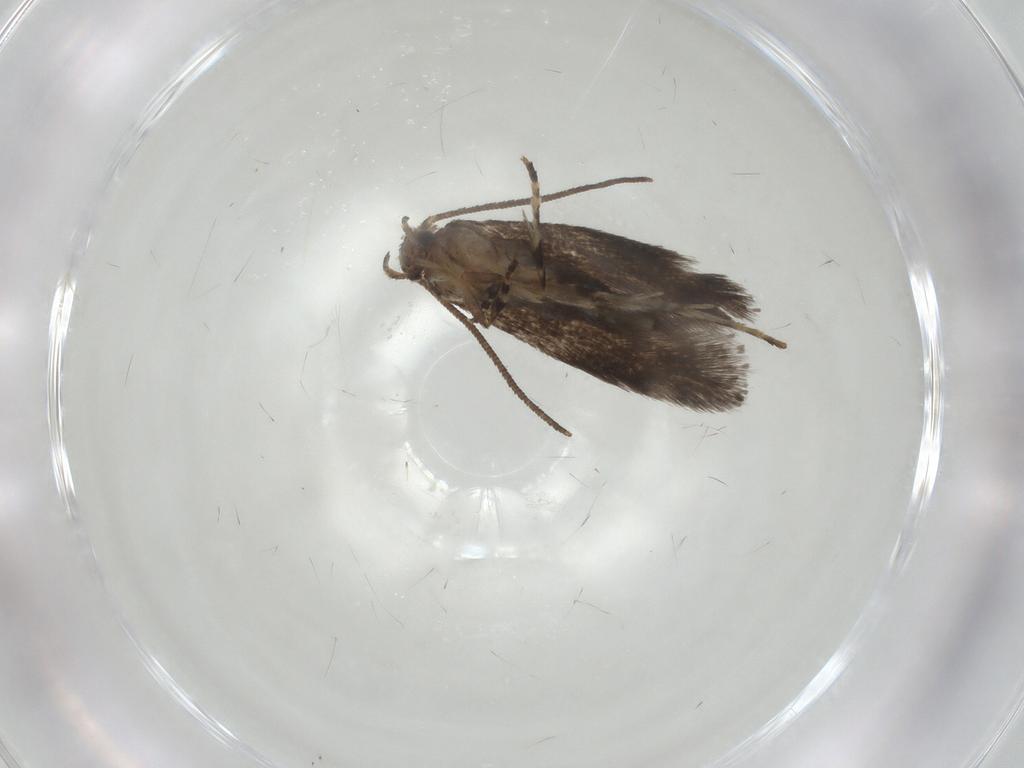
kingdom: Animalia
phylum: Arthropoda
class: Insecta
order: Lepidoptera
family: Elachistidae
